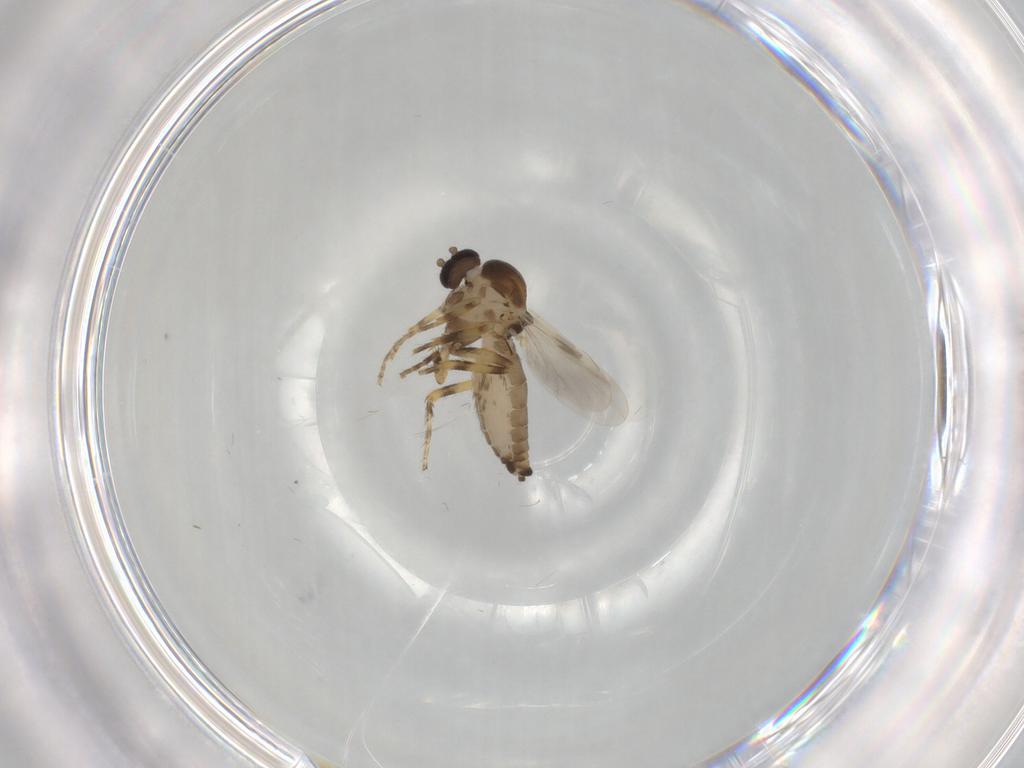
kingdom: Animalia
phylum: Arthropoda
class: Insecta
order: Diptera
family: Ceratopogonidae
